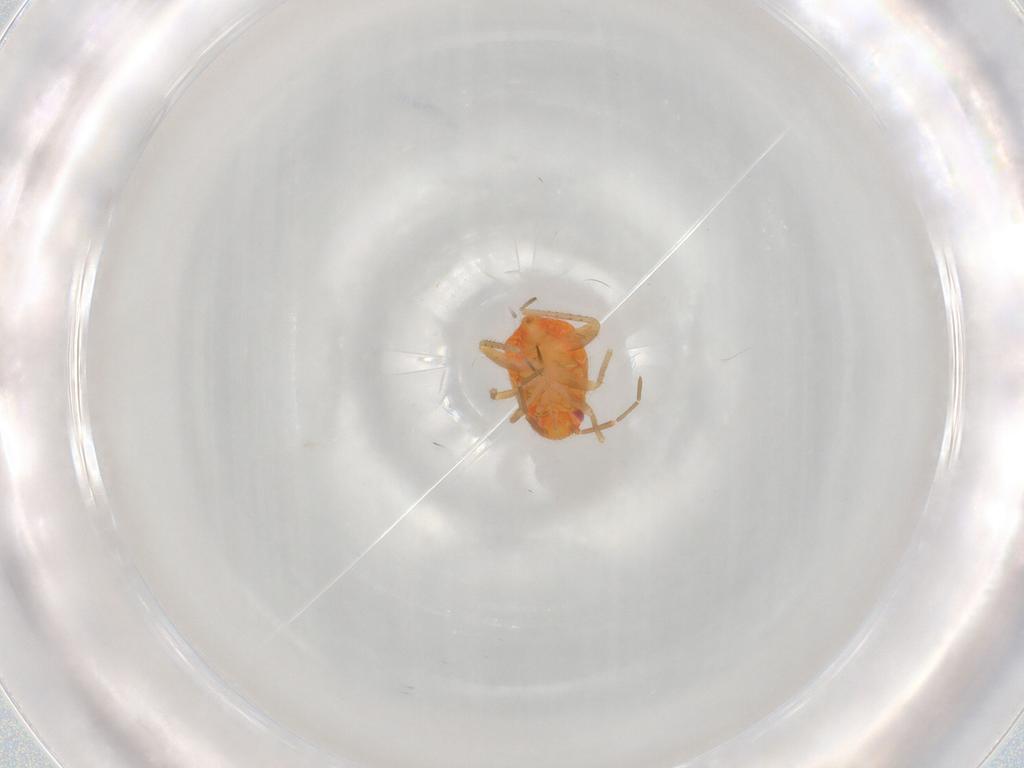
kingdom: Animalia
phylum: Arthropoda
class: Insecta
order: Hemiptera
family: Miridae
